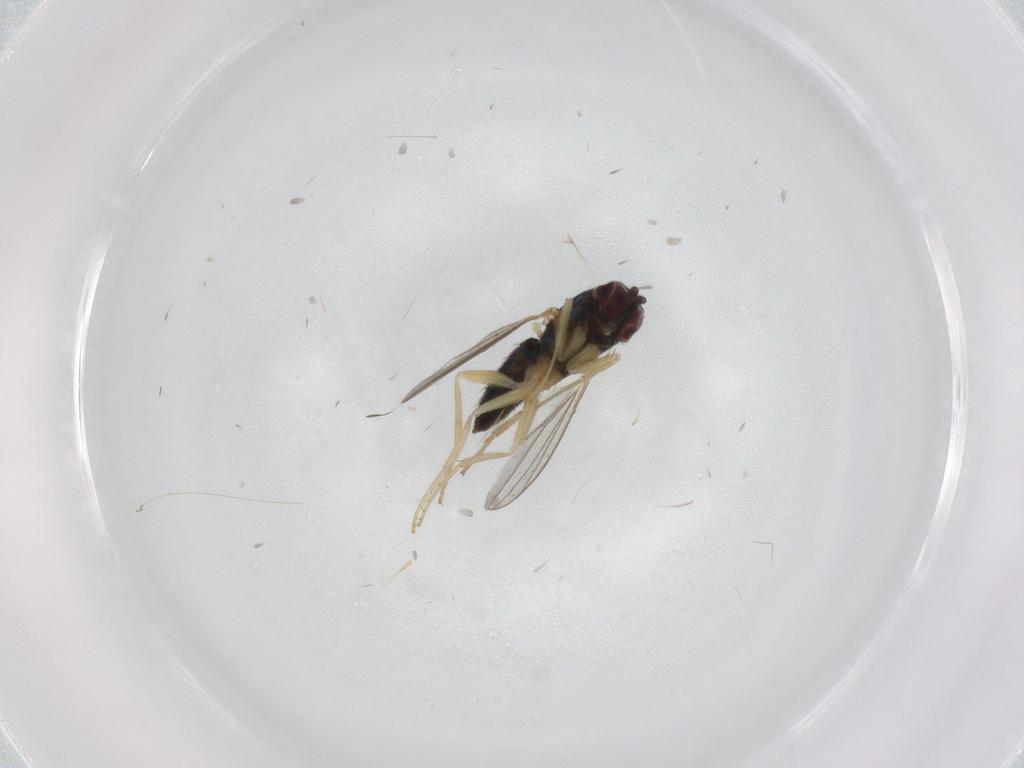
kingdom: Animalia
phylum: Arthropoda
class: Insecta
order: Diptera
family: Dolichopodidae
